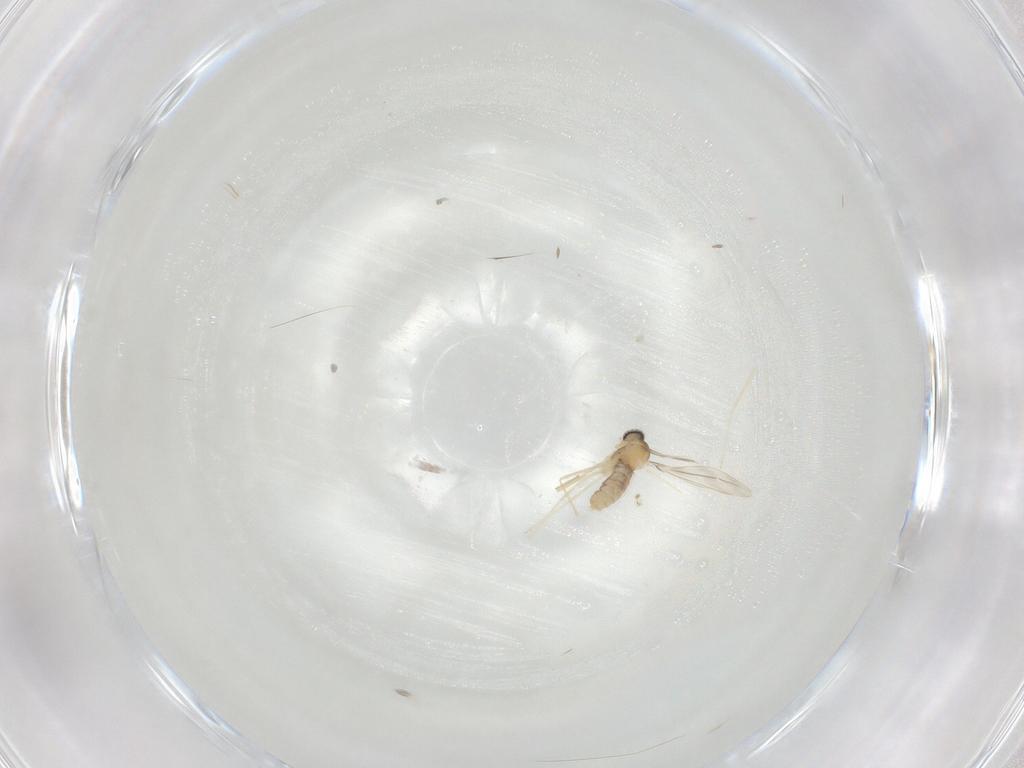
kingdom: Animalia
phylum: Arthropoda
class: Insecta
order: Diptera
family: Cecidomyiidae
